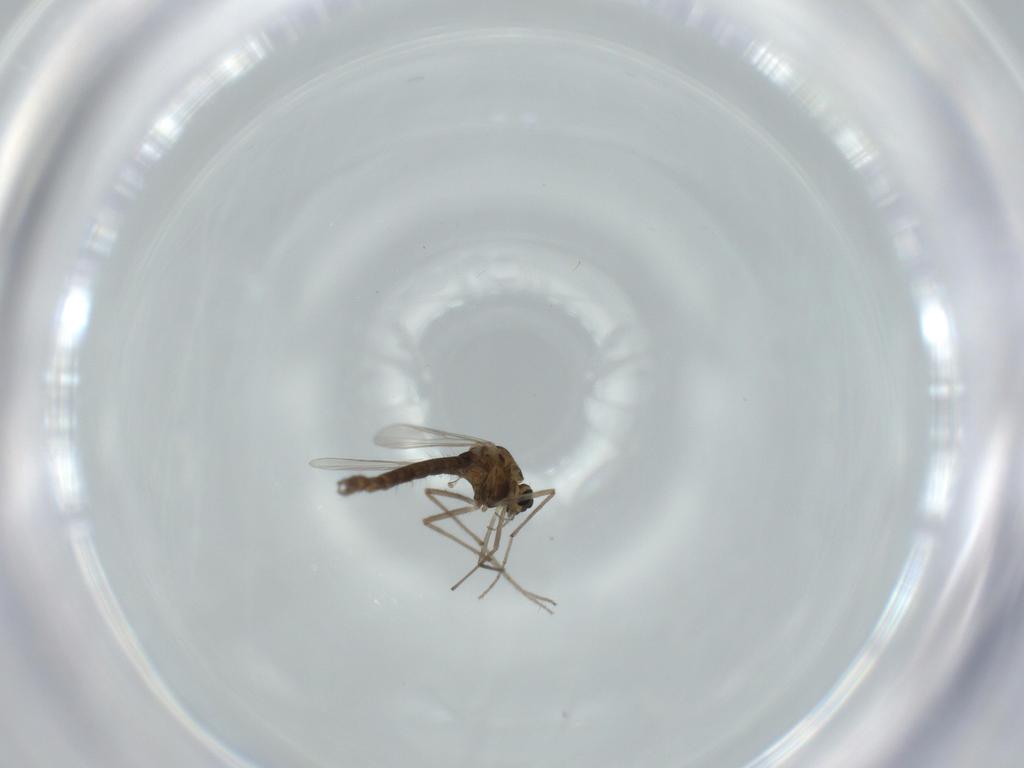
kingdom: Animalia
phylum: Arthropoda
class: Insecta
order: Diptera
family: Chironomidae
